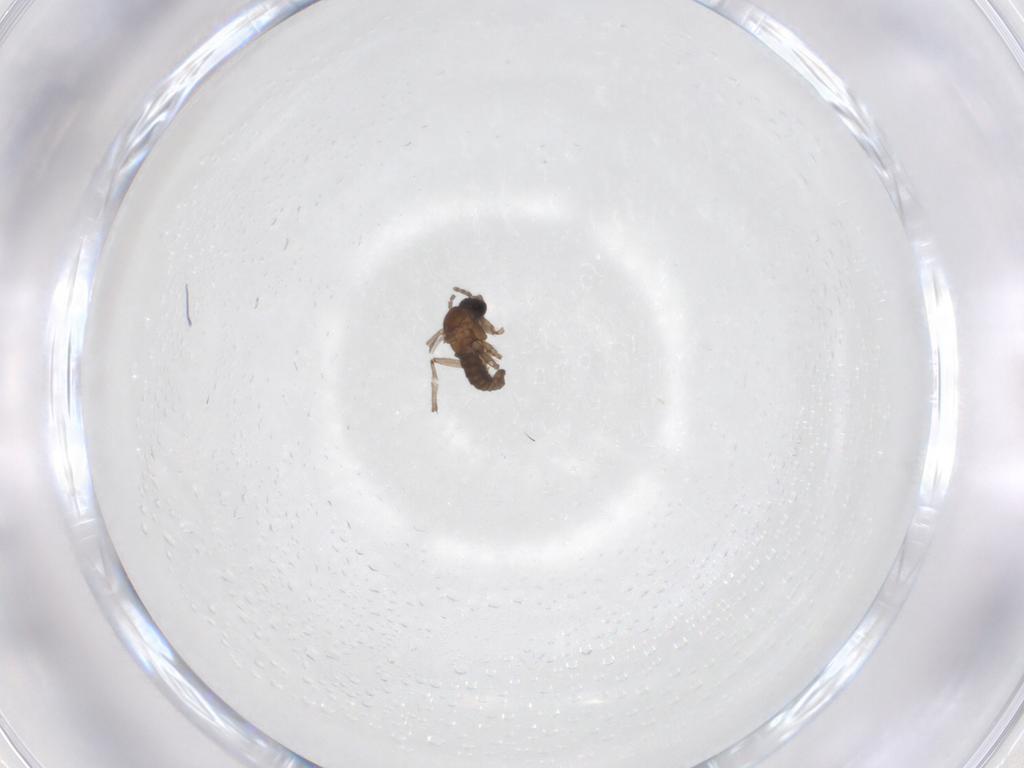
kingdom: Animalia
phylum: Arthropoda
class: Insecta
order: Diptera
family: Sciaridae
